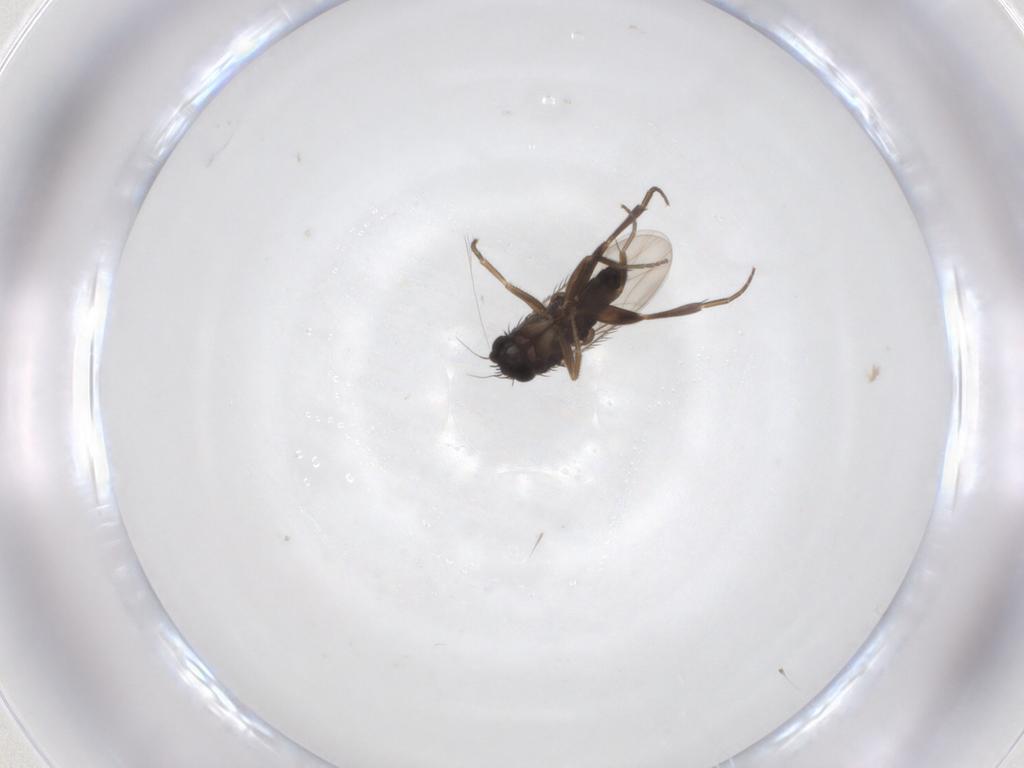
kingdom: Animalia
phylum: Arthropoda
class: Insecta
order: Diptera
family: Phoridae
